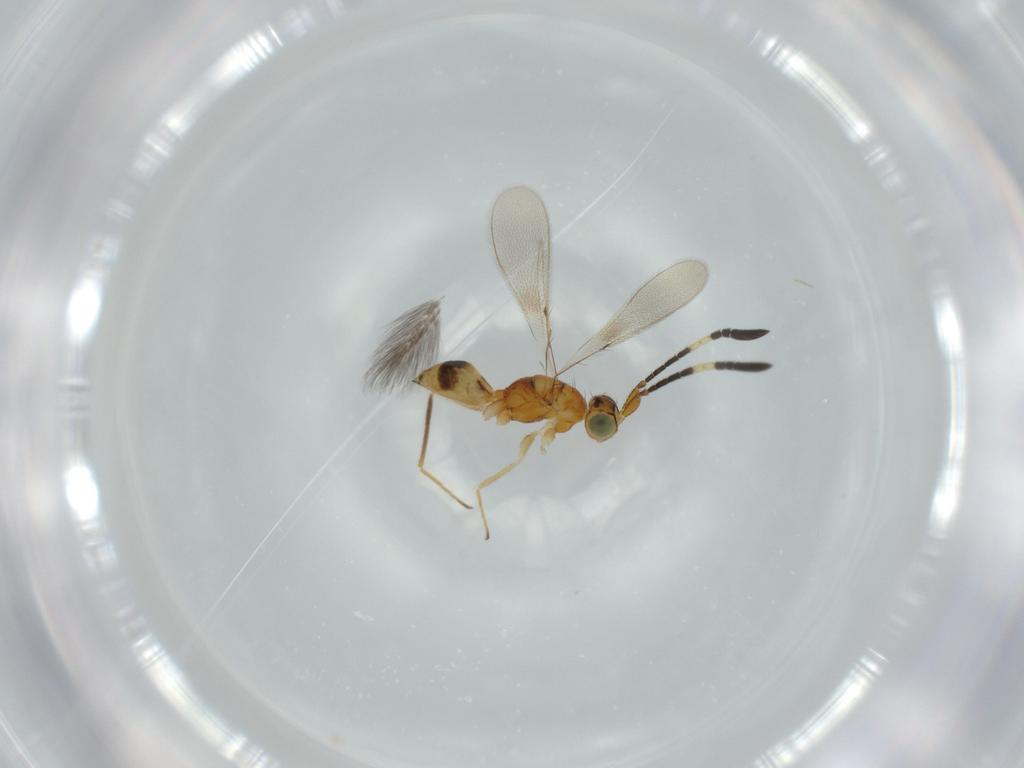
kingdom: Animalia
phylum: Arthropoda
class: Insecta
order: Hymenoptera
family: Mymaridae
